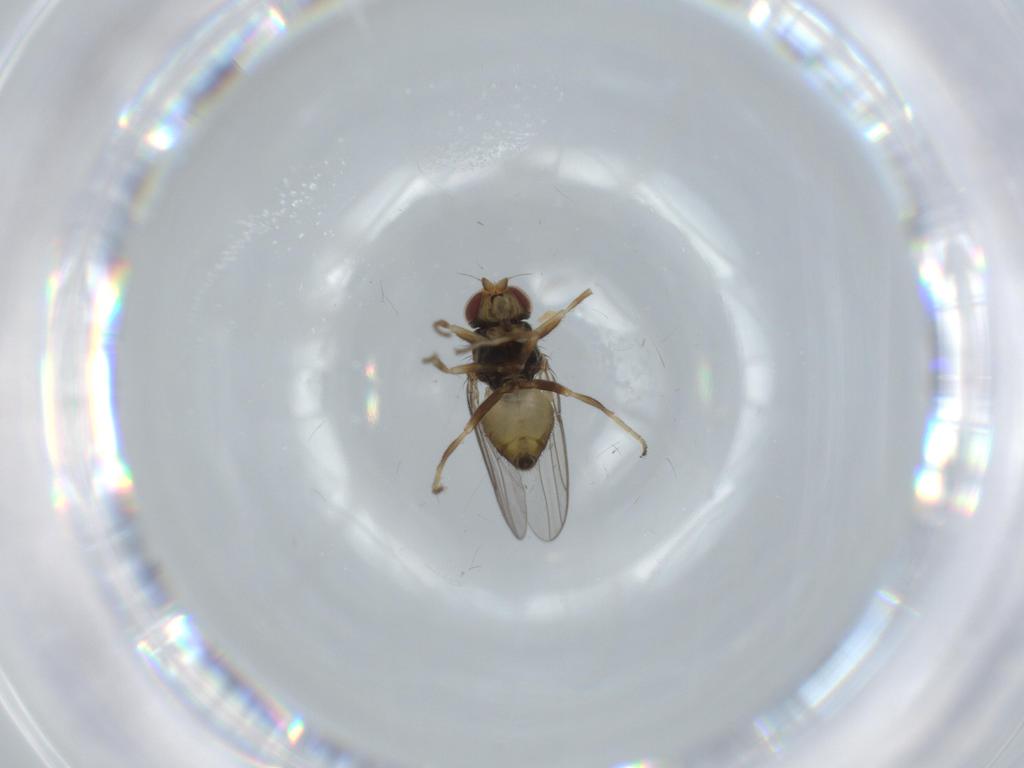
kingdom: Animalia
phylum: Arthropoda
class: Insecta
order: Diptera
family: Chloropidae
